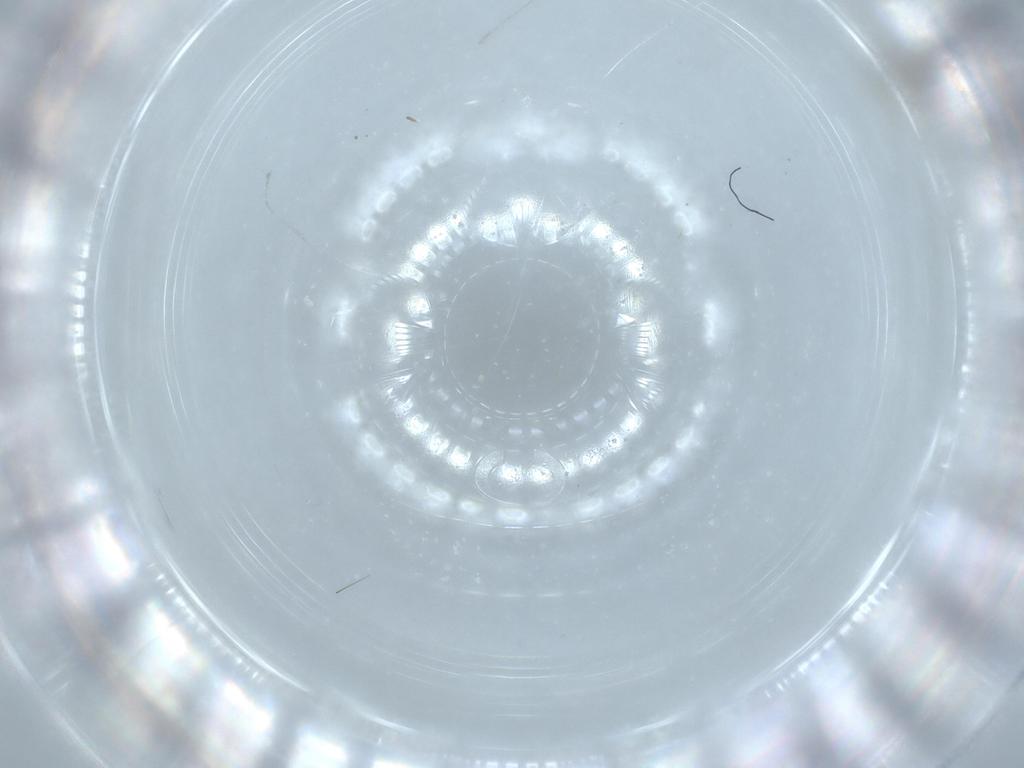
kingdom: Animalia
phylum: Arthropoda
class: Insecta
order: Diptera
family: Cecidomyiidae
